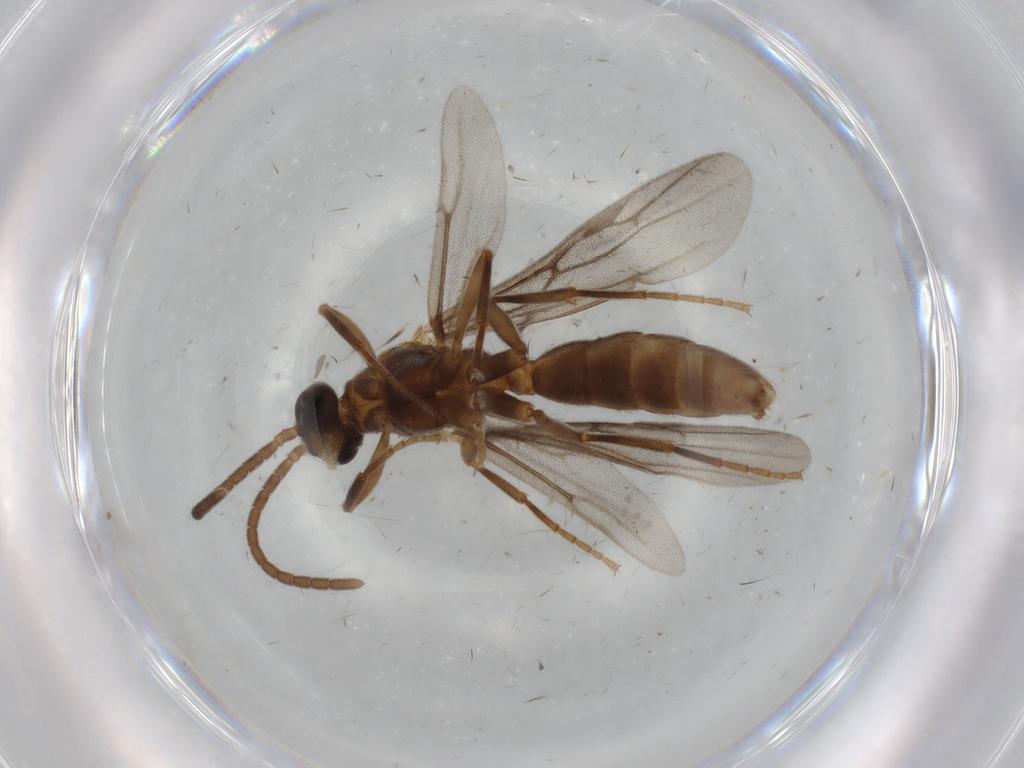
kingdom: Animalia
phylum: Arthropoda
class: Insecta
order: Hymenoptera
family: Formicidae
